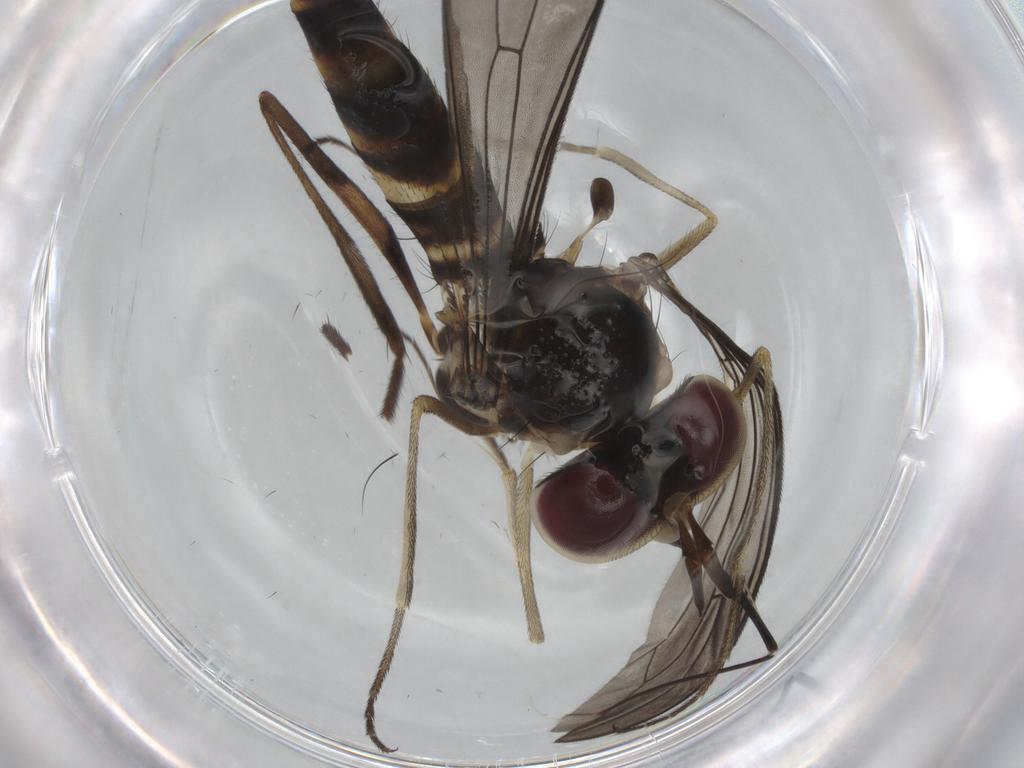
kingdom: Animalia
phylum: Arthropoda
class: Insecta
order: Diptera
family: Conopidae
